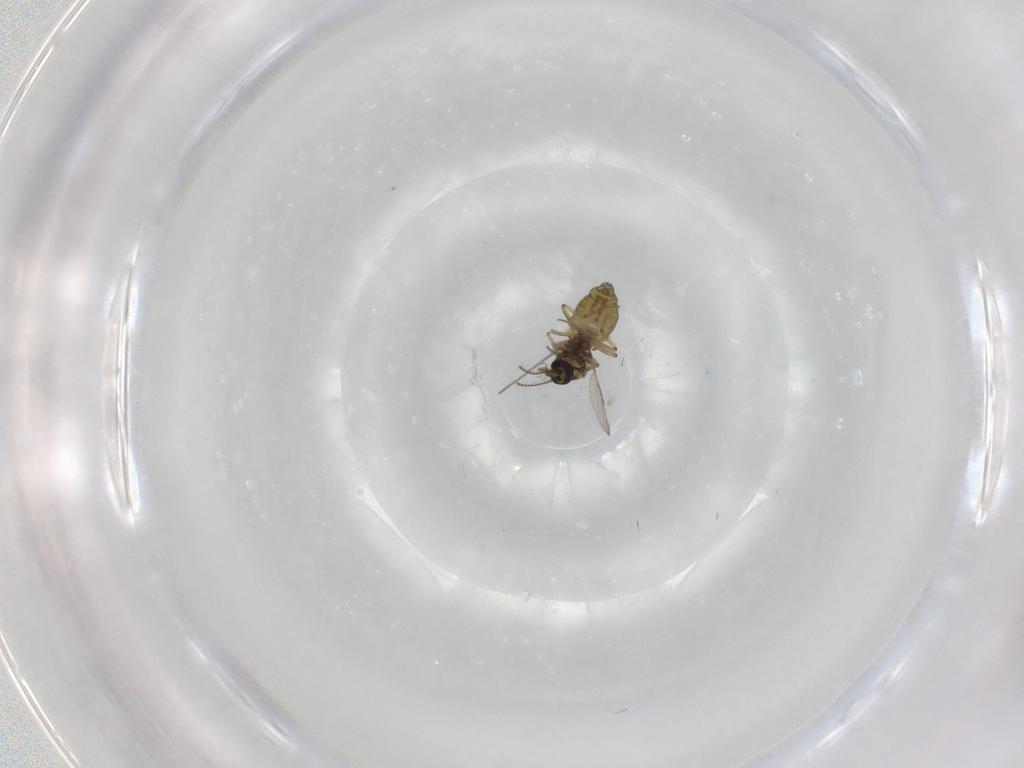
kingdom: Animalia
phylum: Arthropoda
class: Insecta
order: Diptera
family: Ceratopogonidae
